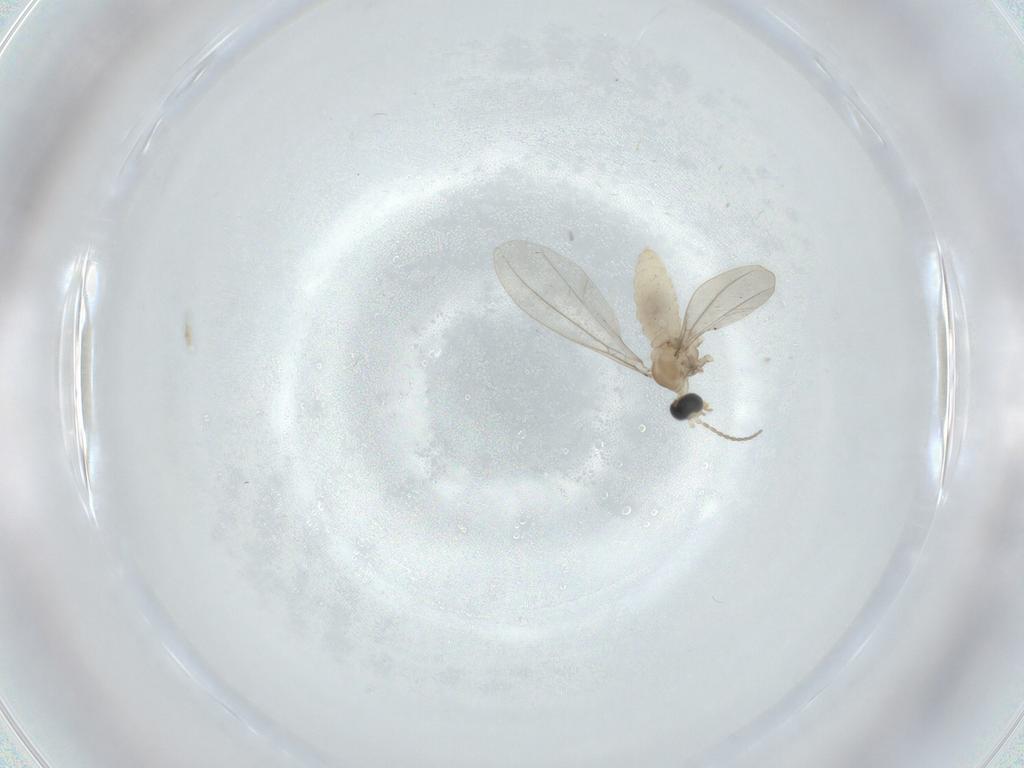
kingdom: Animalia
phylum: Arthropoda
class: Insecta
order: Diptera
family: Cecidomyiidae
